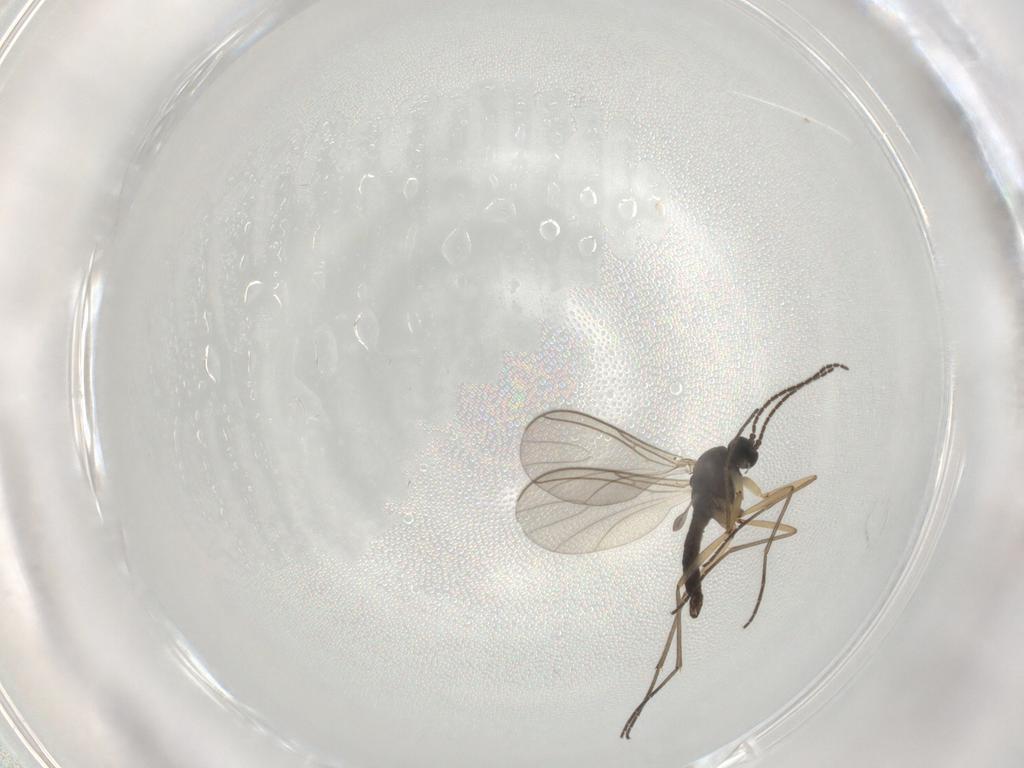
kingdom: Animalia
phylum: Arthropoda
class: Insecta
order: Diptera
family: Sciaridae
